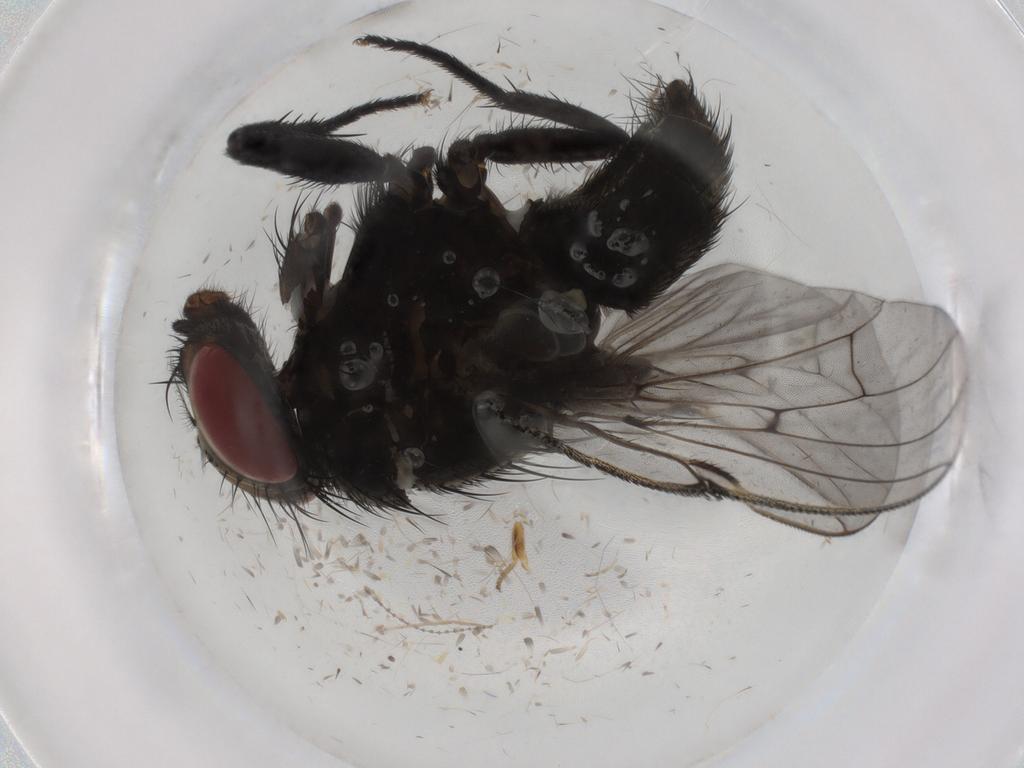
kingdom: Animalia
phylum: Arthropoda
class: Insecta
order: Diptera
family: Muscidae
